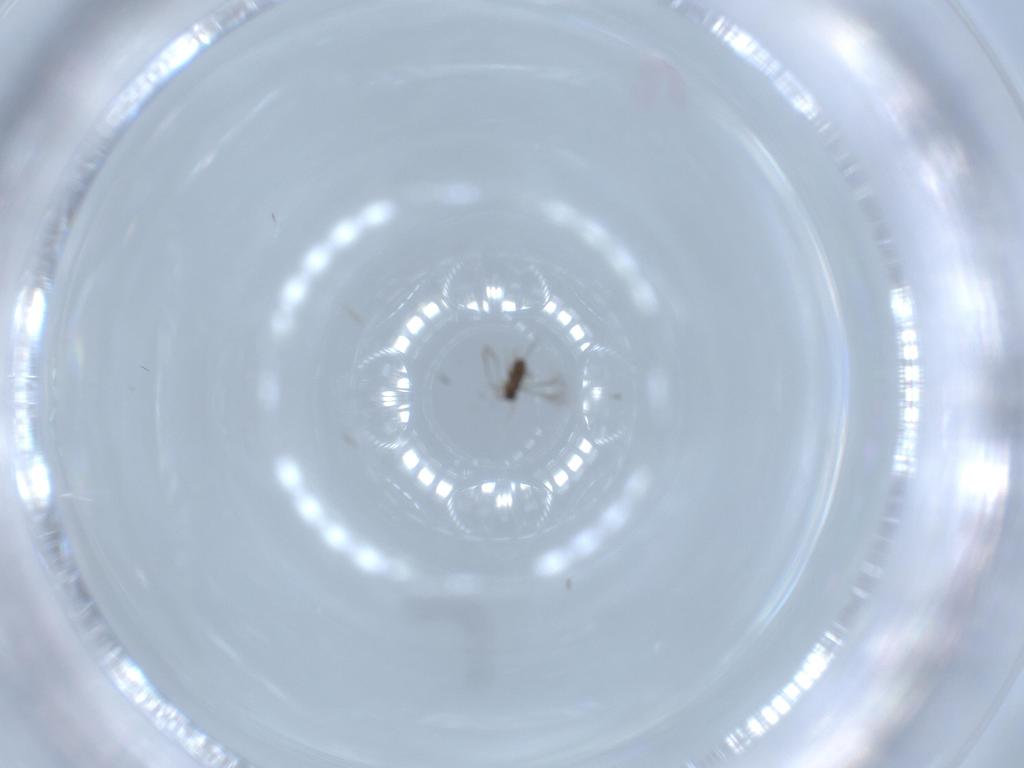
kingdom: Animalia
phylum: Arthropoda
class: Insecta
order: Hymenoptera
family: Mymaridae
